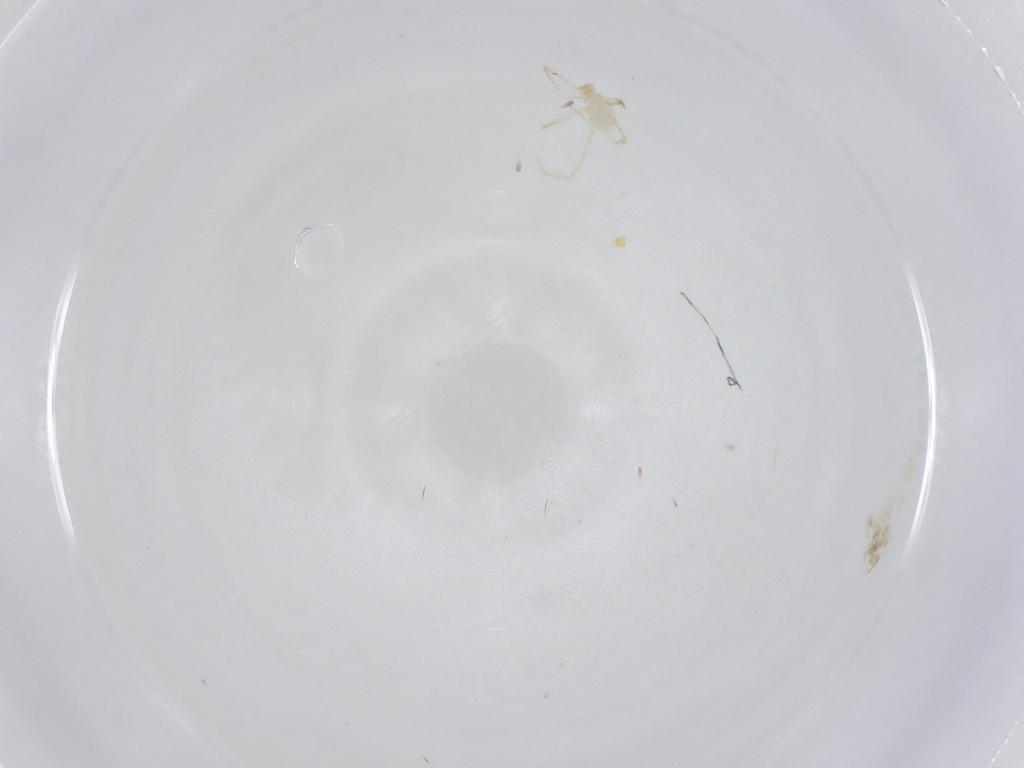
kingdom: Animalia
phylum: Arthropoda
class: Arachnida
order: Trombidiformes
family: Erythraeidae
